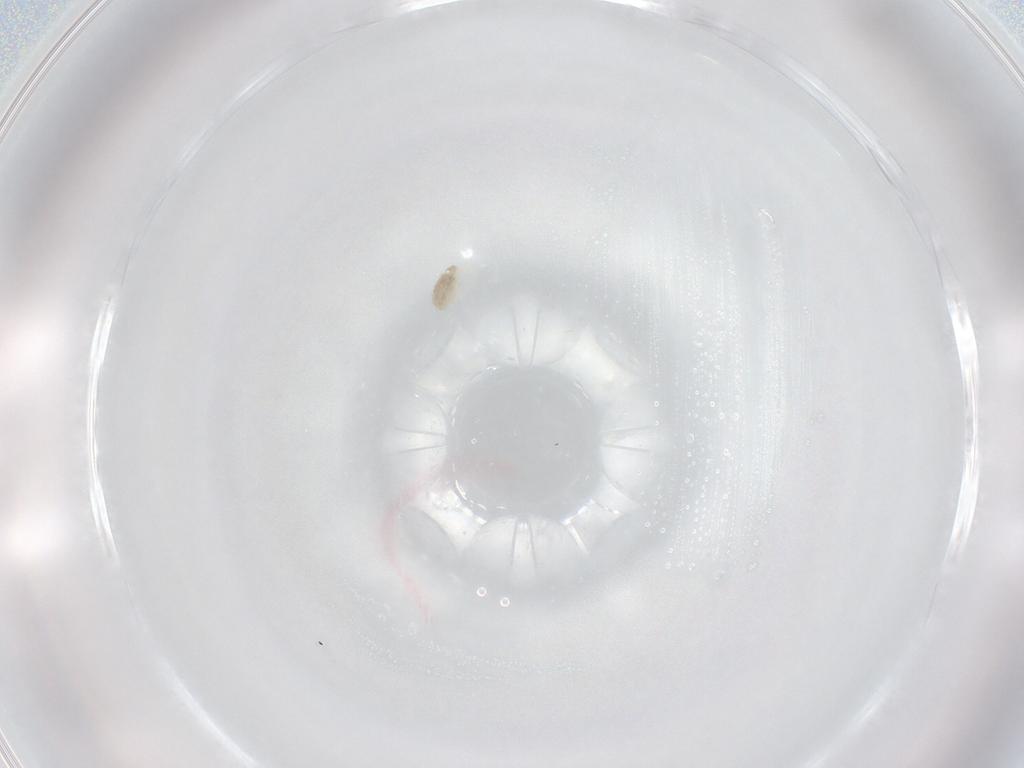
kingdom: Animalia
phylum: Arthropoda
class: Arachnida
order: Trombidiformes
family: Eupodidae
